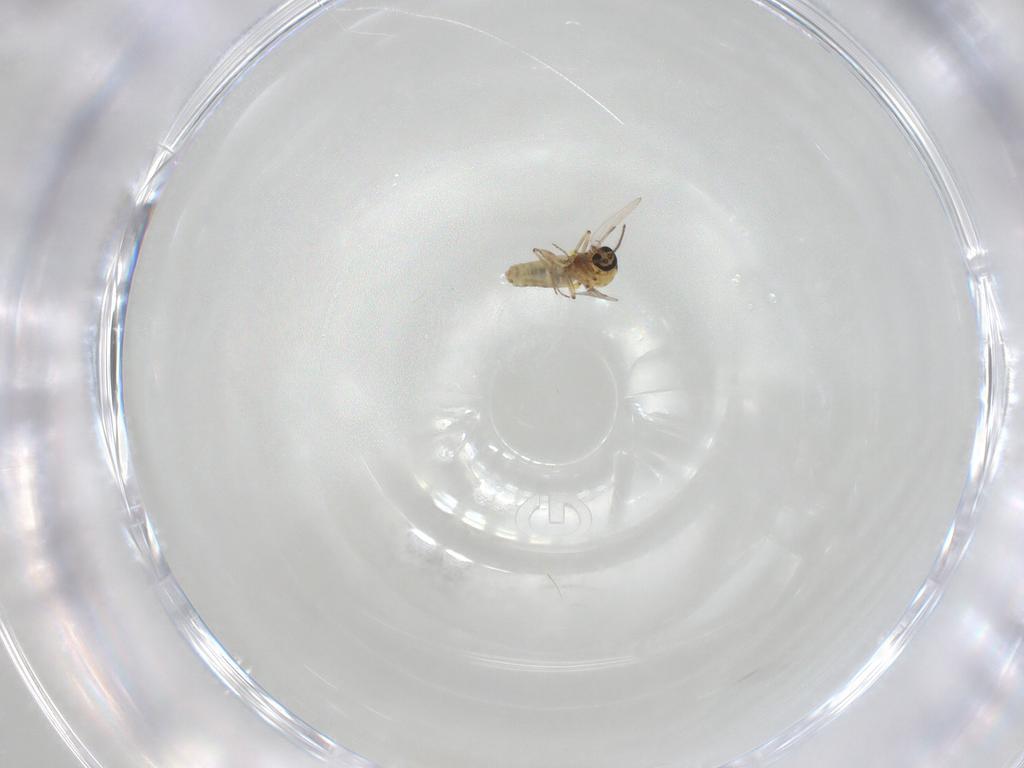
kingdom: Animalia
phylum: Arthropoda
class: Insecta
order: Diptera
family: Ceratopogonidae
